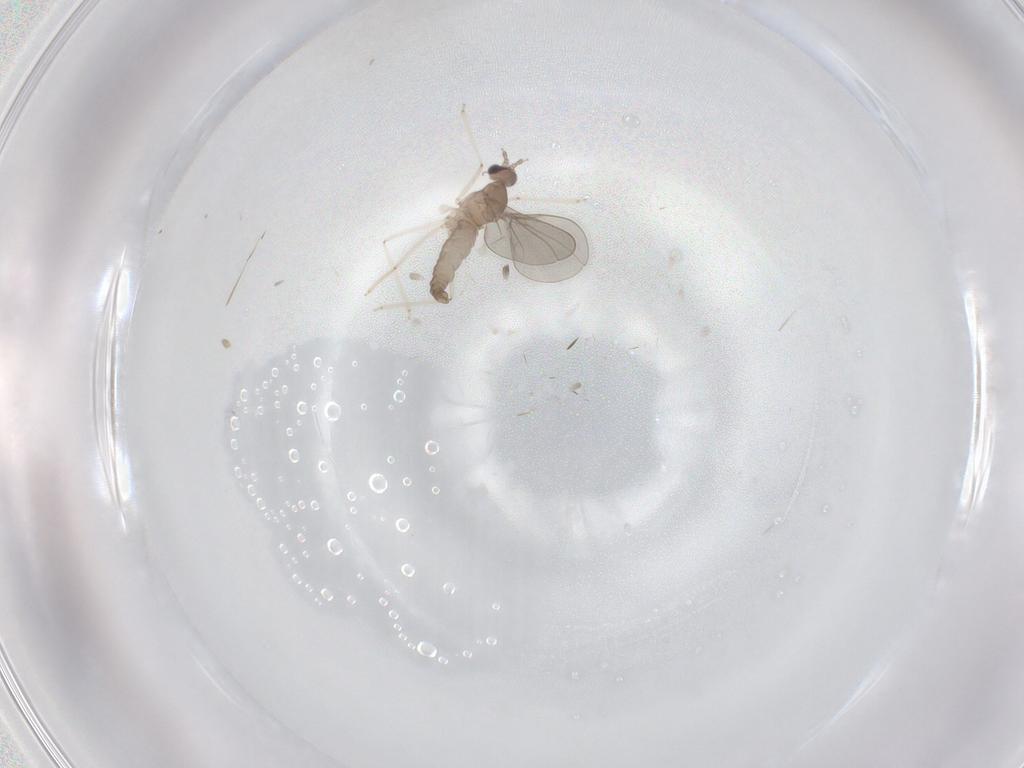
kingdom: Animalia
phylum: Arthropoda
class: Insecta
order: Diptera
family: Cecidomyiidae
